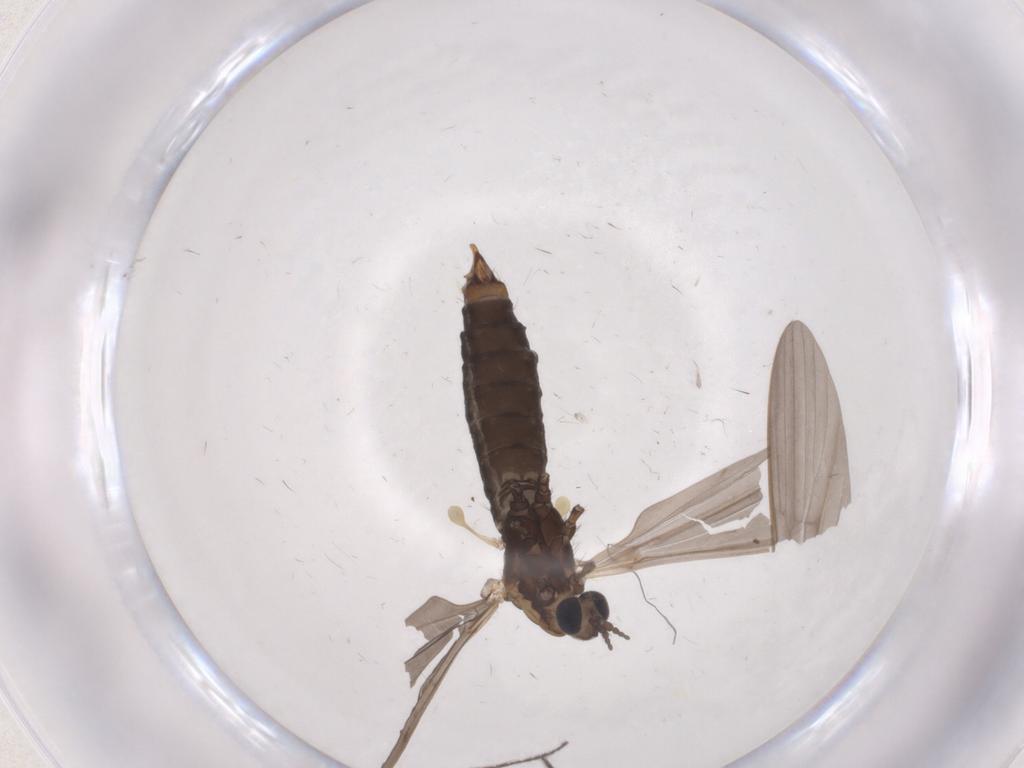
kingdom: Animalia
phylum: Arthropoda
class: Insecta
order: Diptera
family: Limoniidae
